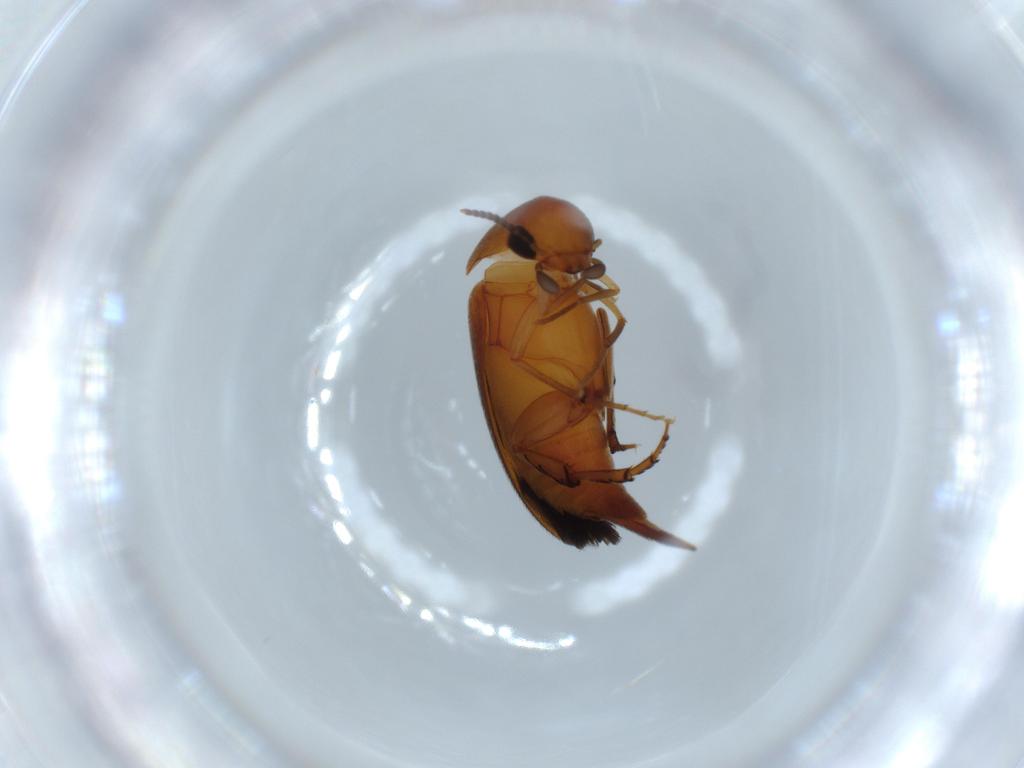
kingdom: Animalia
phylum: Arthropoda
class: Insecta
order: Coleoptera
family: Mordellidae
